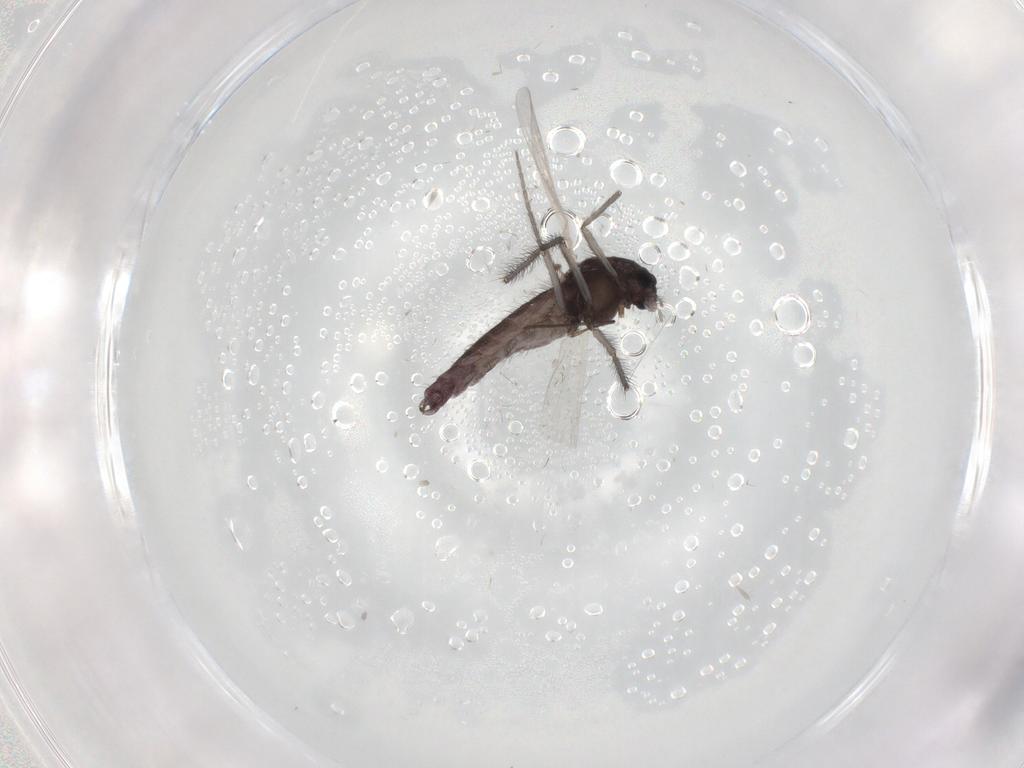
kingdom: Animalia
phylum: Arthropoda
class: Insecta
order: Diptera
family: Chironomidae
